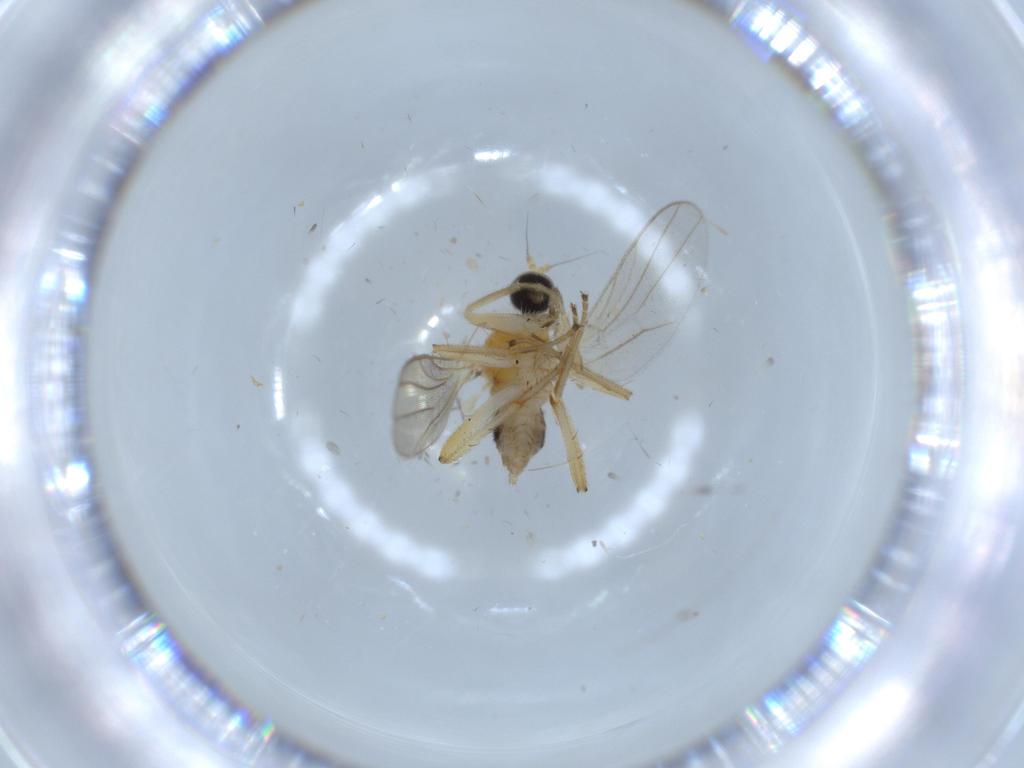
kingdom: Animalia
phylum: Arthropoda
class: Insecta
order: Diptera
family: Hybotidae
